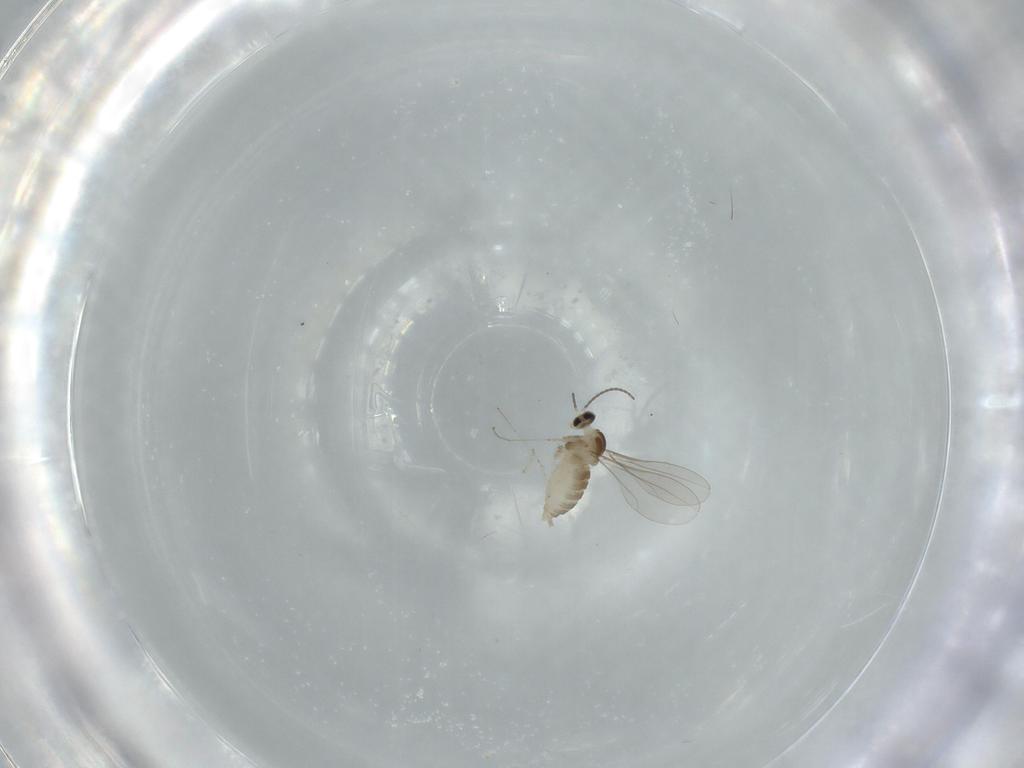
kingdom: Animalia
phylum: Arthropoda
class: Insecta
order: Diptera
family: Cecidomyiidae
